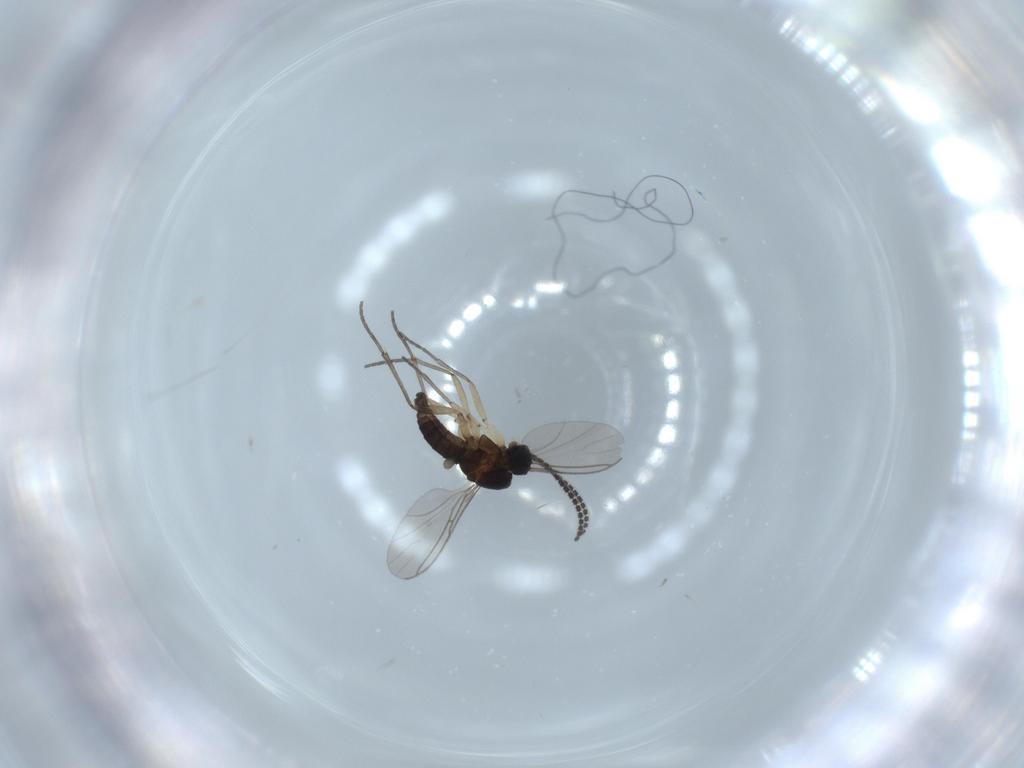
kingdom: Animalia
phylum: Arthropoda
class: Insecta
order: Diptera
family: Sciaridae
